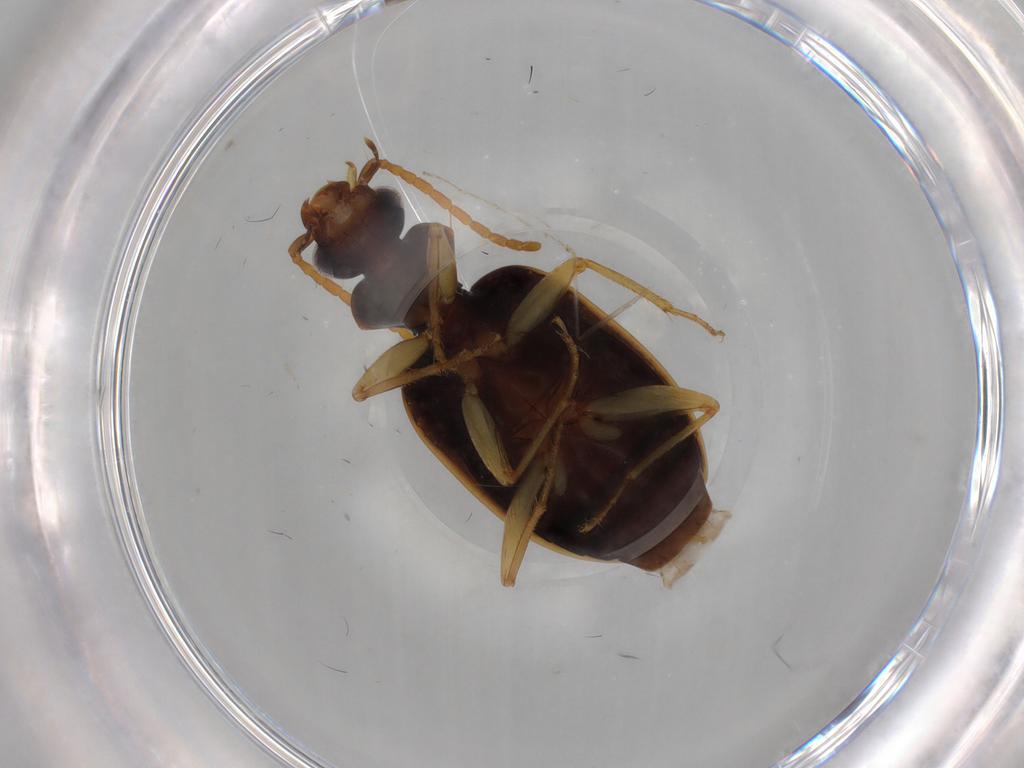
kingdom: Animalia
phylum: Arthropoda
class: Insecta
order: Coleoptera
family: Carabidae
